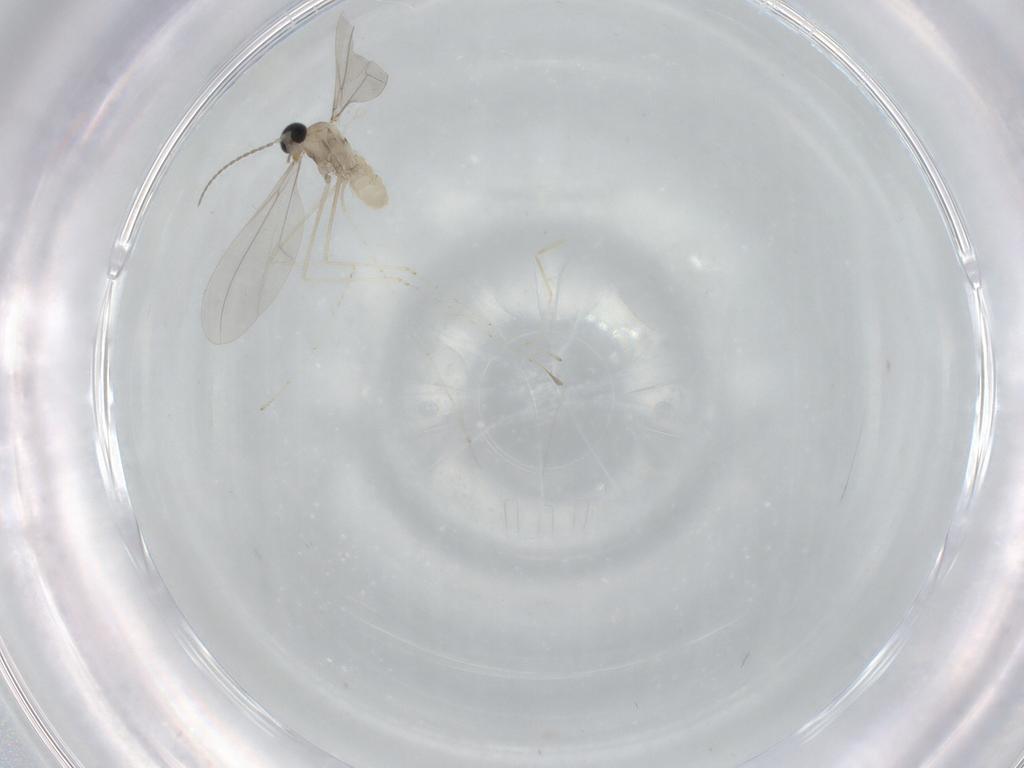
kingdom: Animalia
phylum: Arthropoda
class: Insecta
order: Diptera
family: Cecidomyiidae
